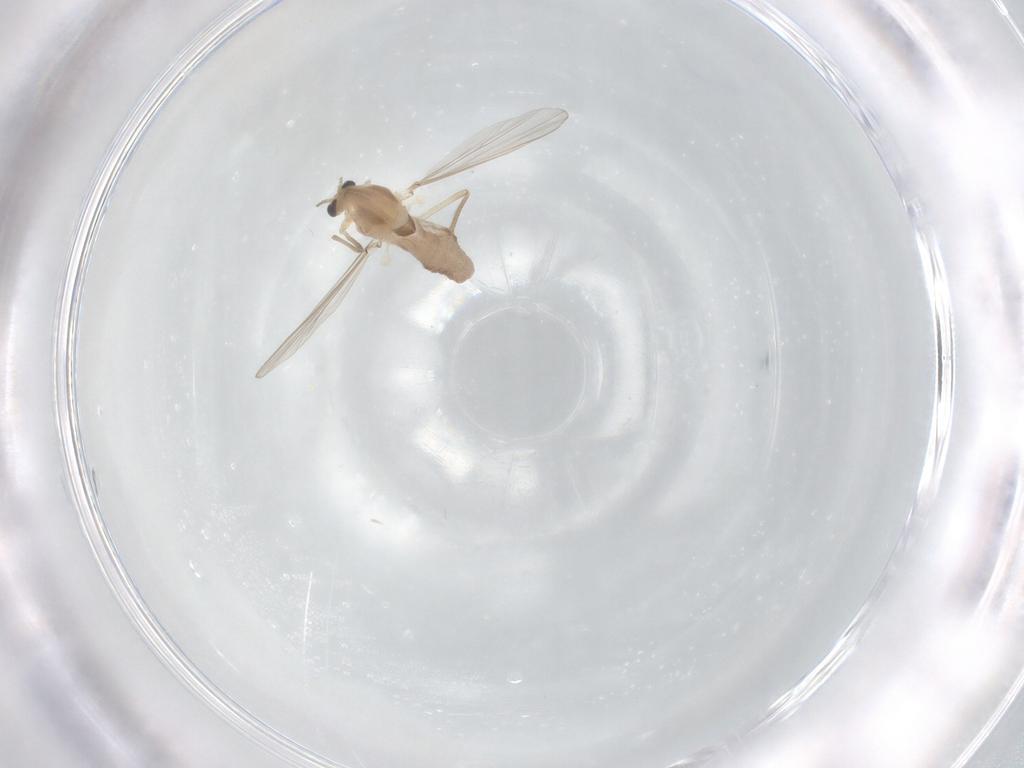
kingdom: Animalia
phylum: Arthropoda
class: Insecta
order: Diptera
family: Chironomidae
